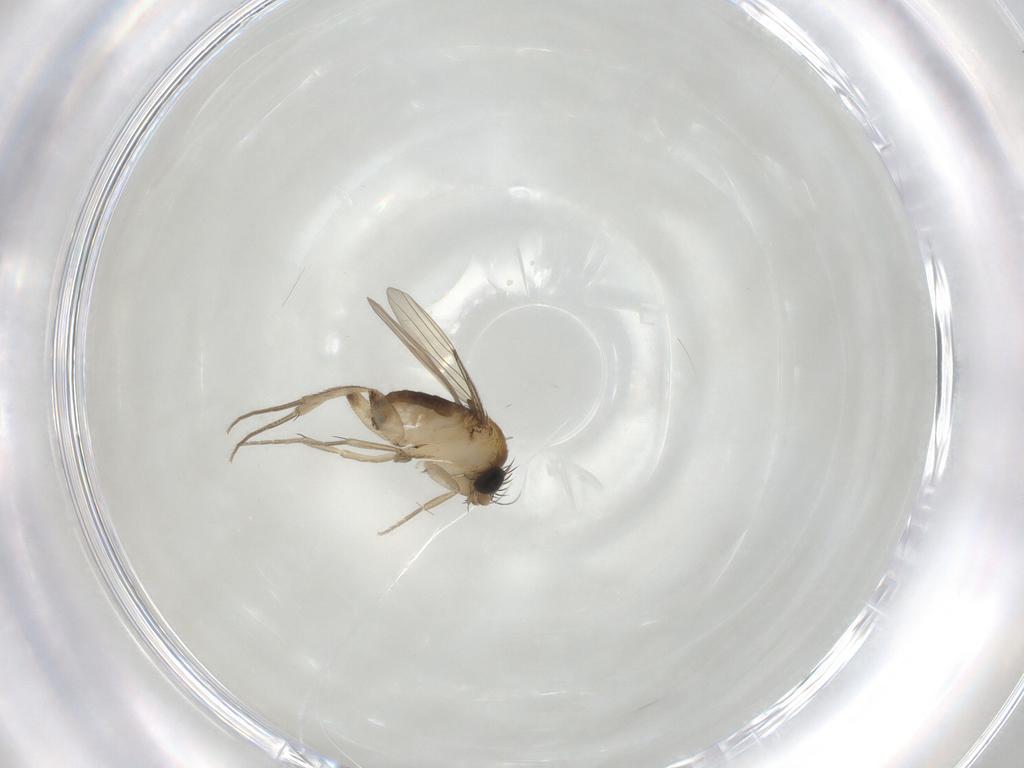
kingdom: Animalia
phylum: Arthropoda
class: Insecta
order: Diptera
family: Phoridae
